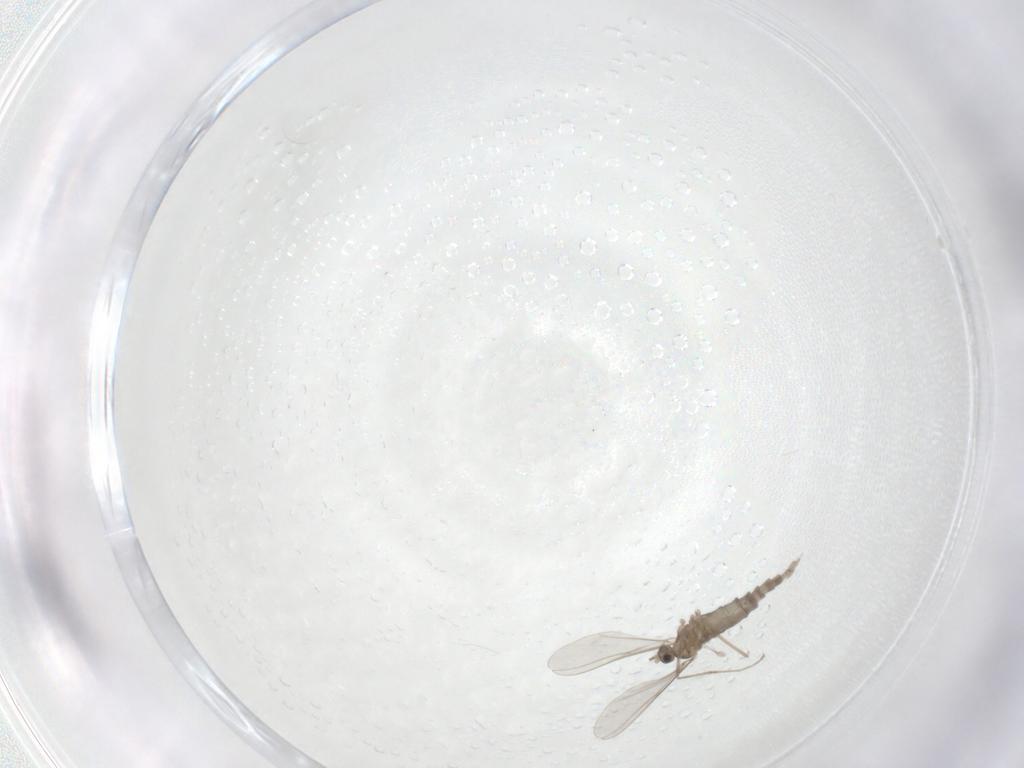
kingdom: Animalia
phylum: Arthropoda
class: Insecta
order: Diptera
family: Cecidomyiidae
